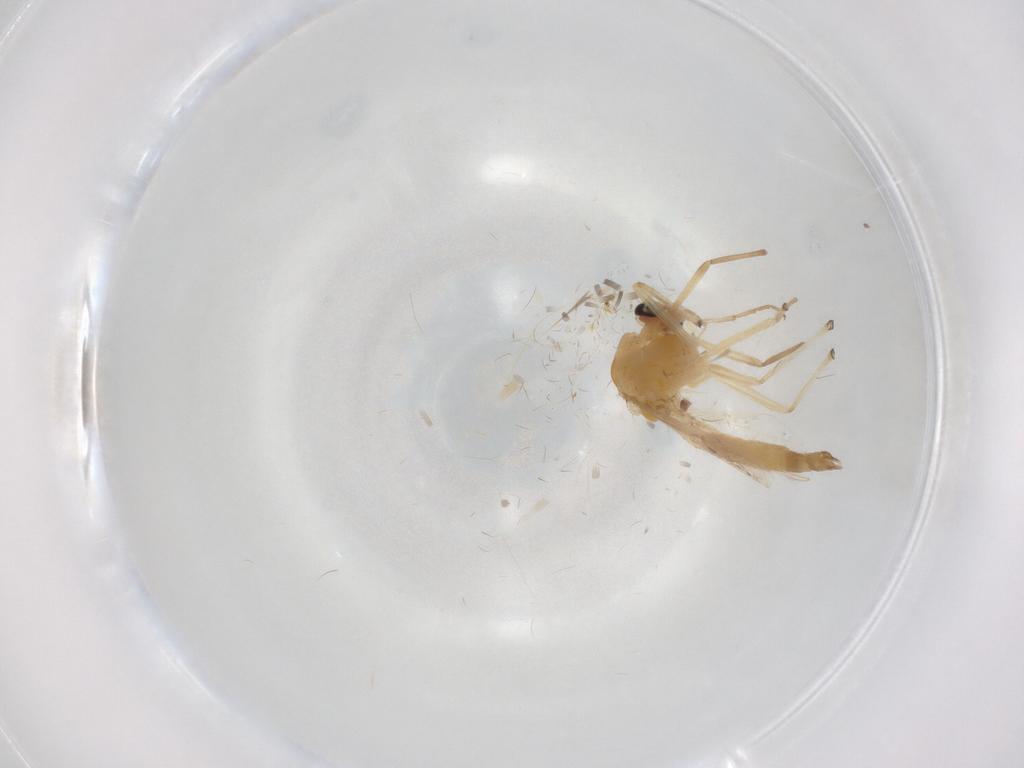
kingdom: Animalia
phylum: Arthropoda
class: Insecta
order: Diptera
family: Chironomidae
